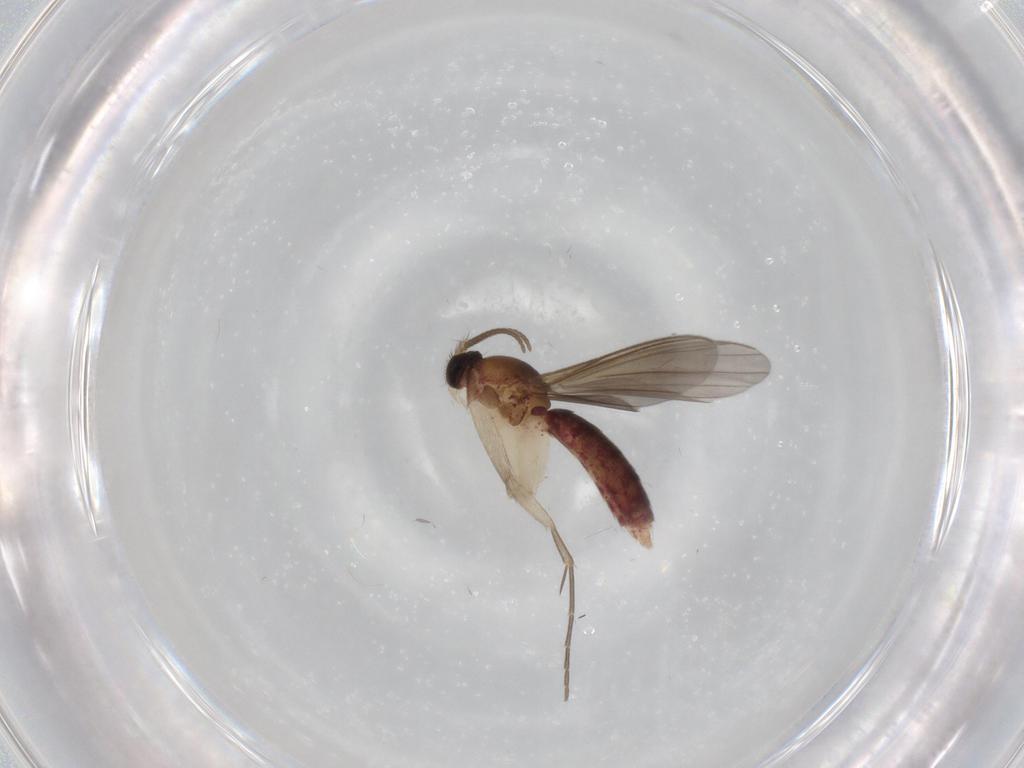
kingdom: Animalia
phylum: Arthropoda
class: Insecta
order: Diptera
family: Mycetophilidae
